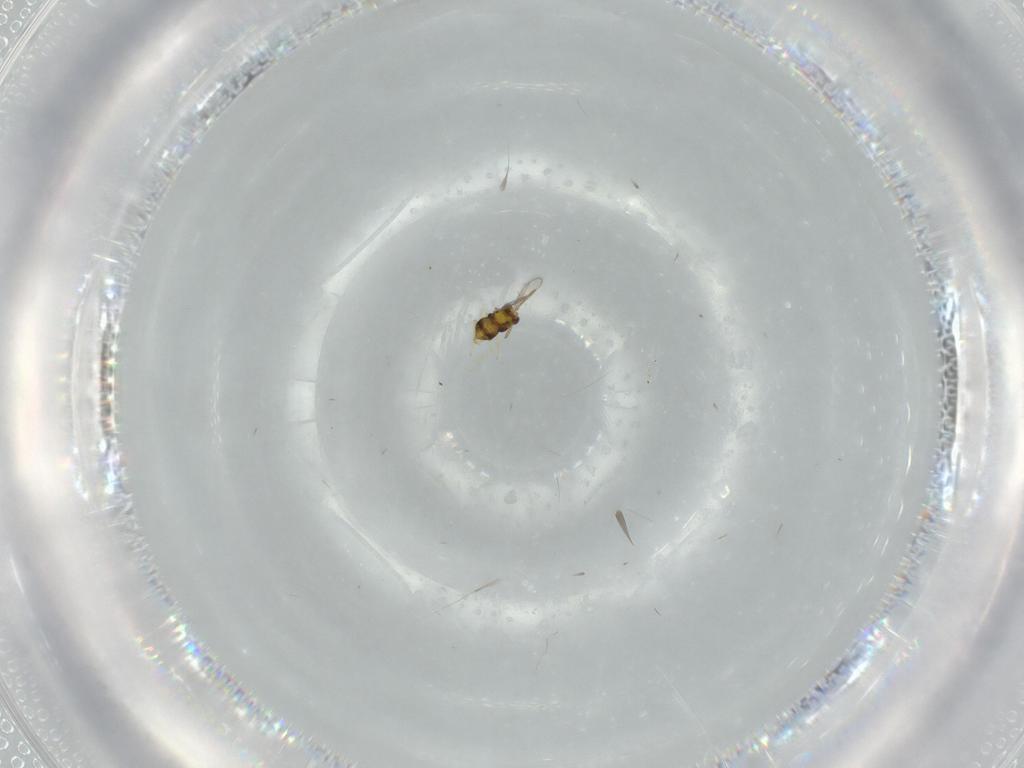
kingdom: Animalia
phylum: Arthropoda
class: Insecta
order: Hymenoptera
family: Aphelinidae
